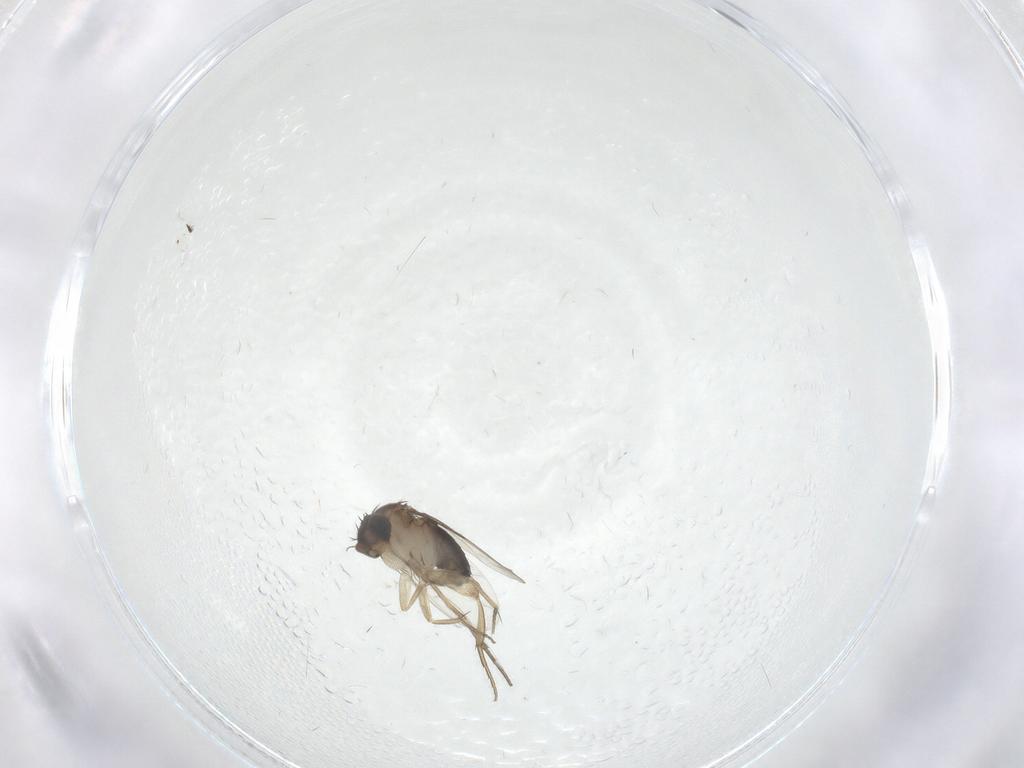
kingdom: Animalia
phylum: Arthropoda
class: Insecta
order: Diptera
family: Phoridae
